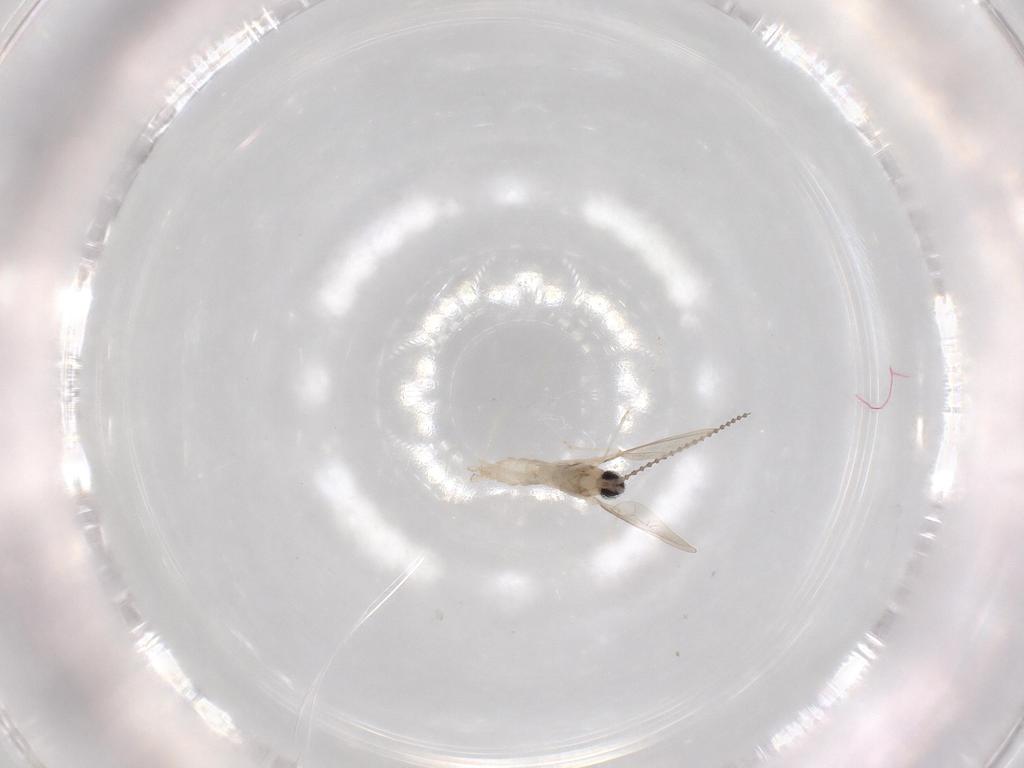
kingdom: Animalia
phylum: Arthropoda
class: Insecta
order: Diptera
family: Cecidomyiidae
